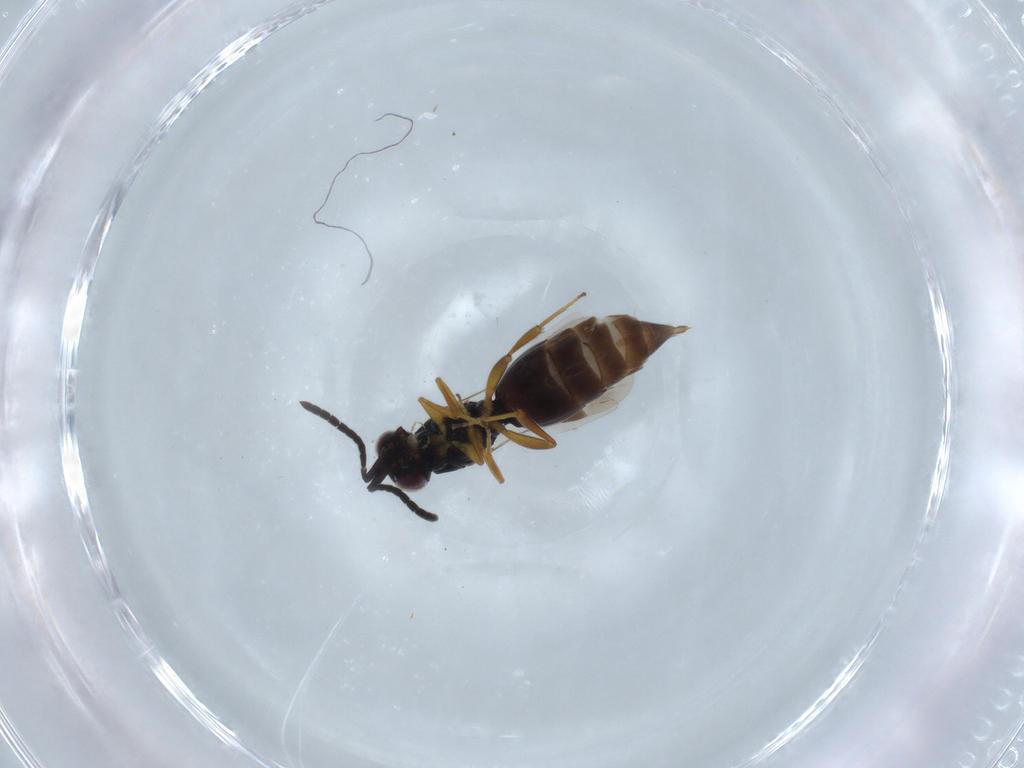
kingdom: Animalia
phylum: Arthropoda
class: Insecta
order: Hymenoptera
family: Megaspilidae
